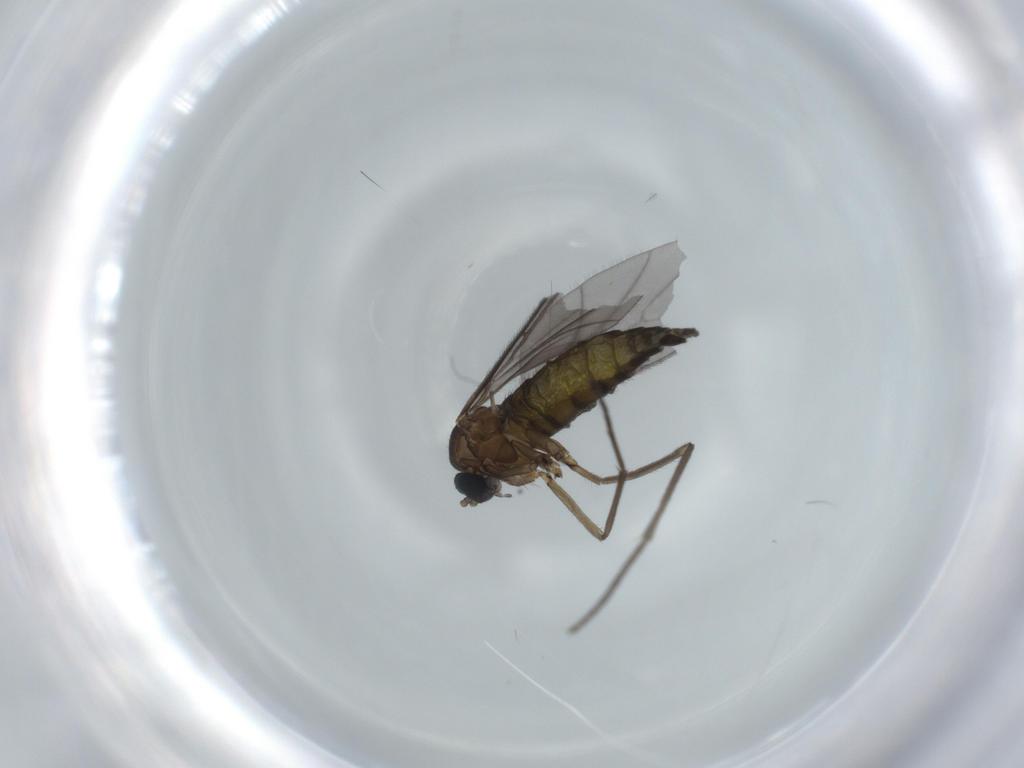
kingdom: Animalia
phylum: Arthropoda
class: Insecta
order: Diptera
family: Sciaridae
